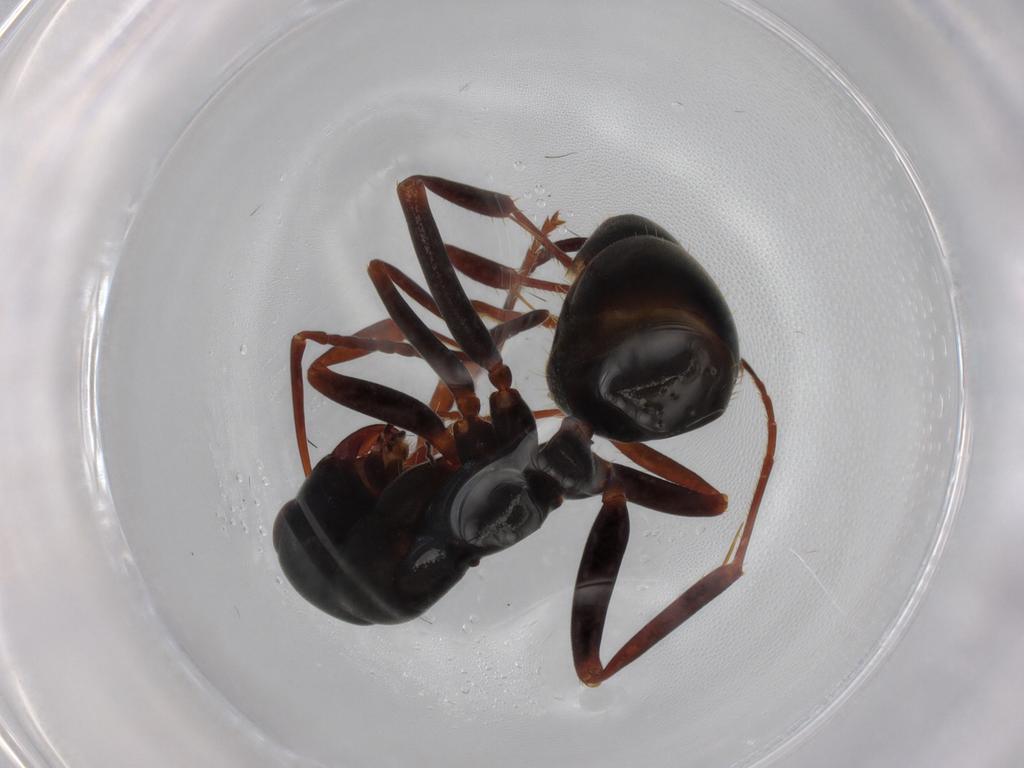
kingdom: Animalia
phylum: Arthropoda
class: Insecta
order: Hymenoptera
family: Formicidae
